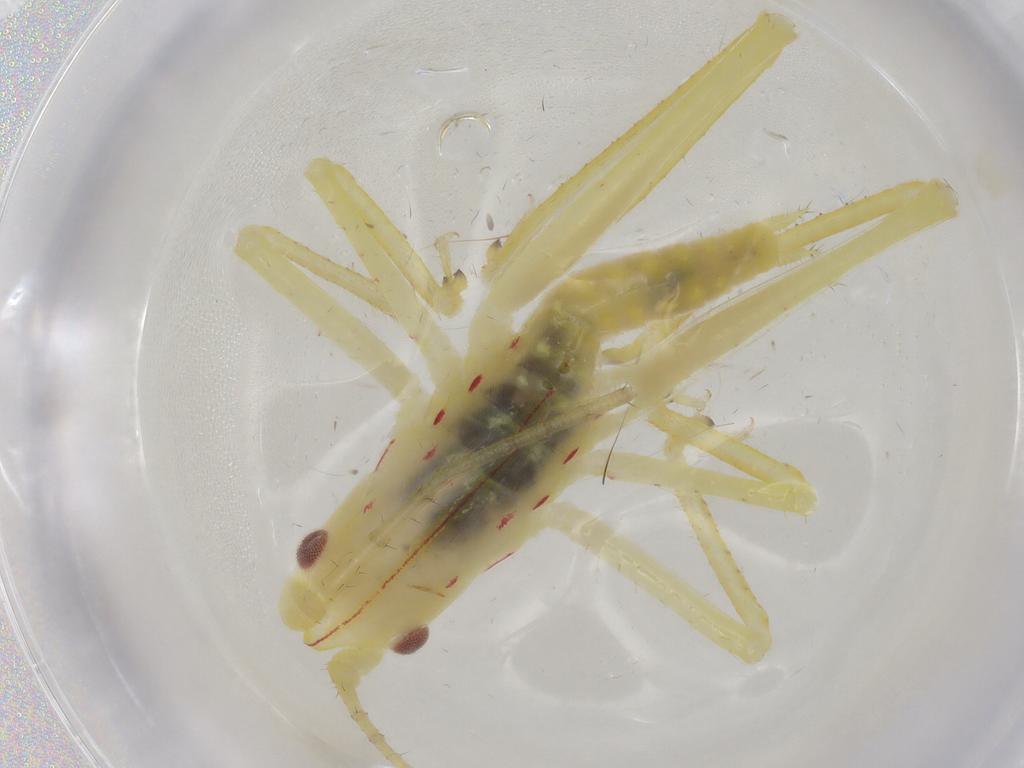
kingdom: Animalia
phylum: Arthropoda
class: Insecta
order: Orthoptera
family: Tettigoniidae
